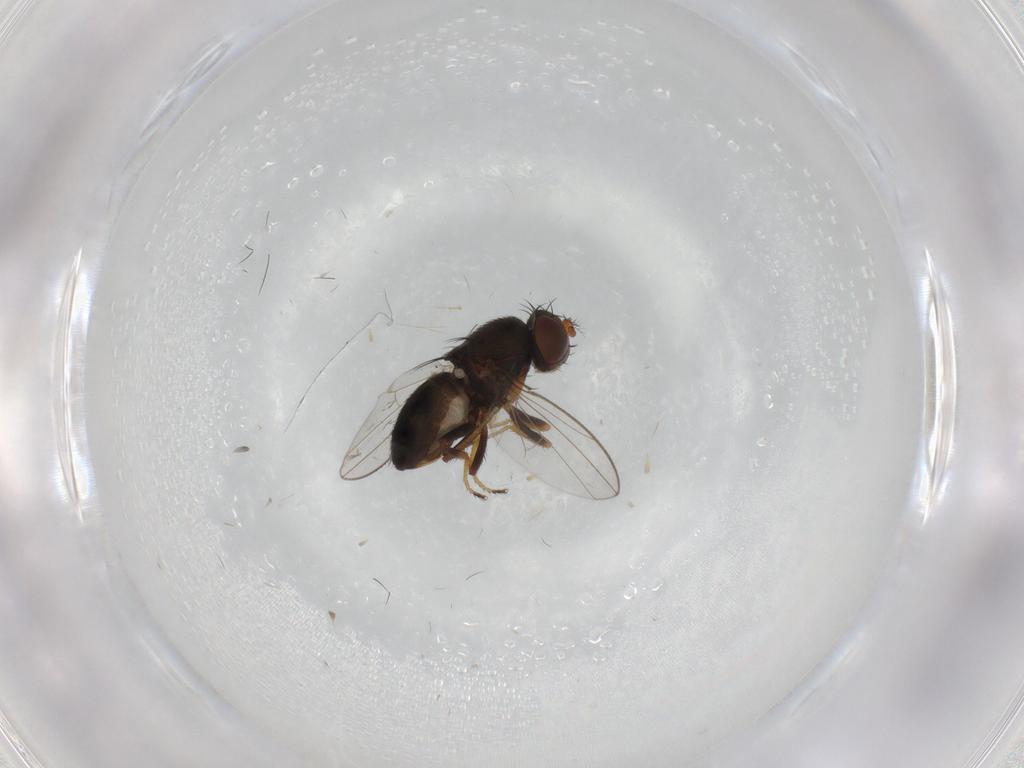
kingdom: Animalia
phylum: Arthropoda
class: Insecta
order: Diptera
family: Ephydridae
